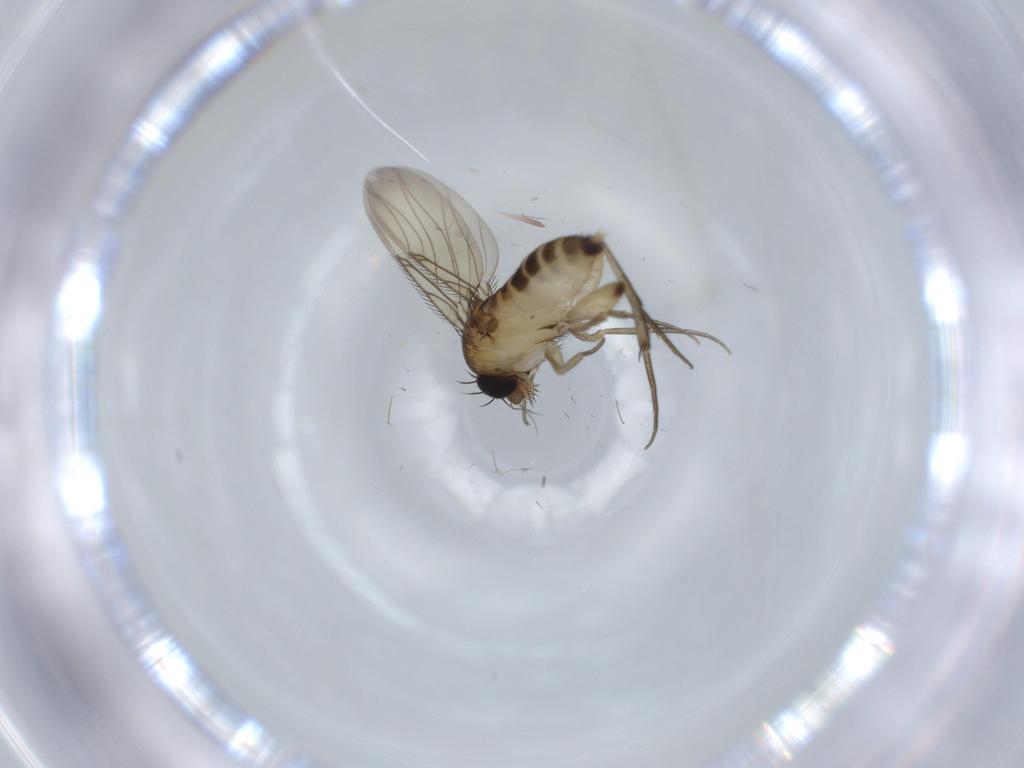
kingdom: Animalia
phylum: Arthropoda
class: Insecta
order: Diptera
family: Phoridae
